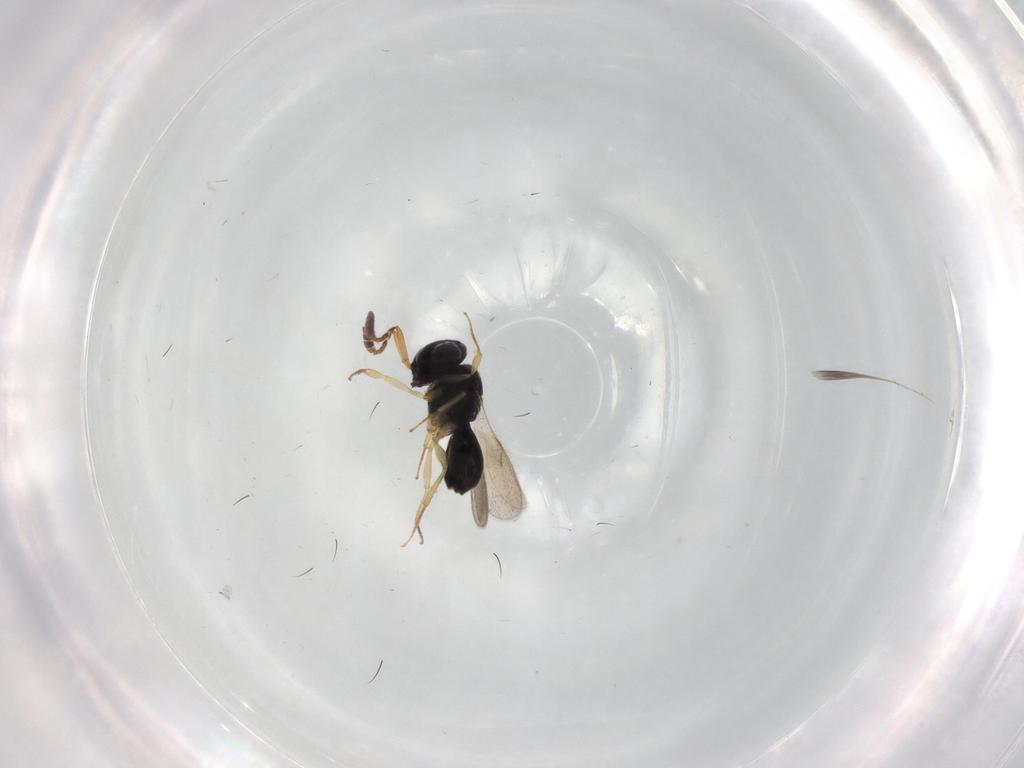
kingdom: Animalia
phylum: Arthropoda
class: Insecta
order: Hymenoptera
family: Scelionidae
